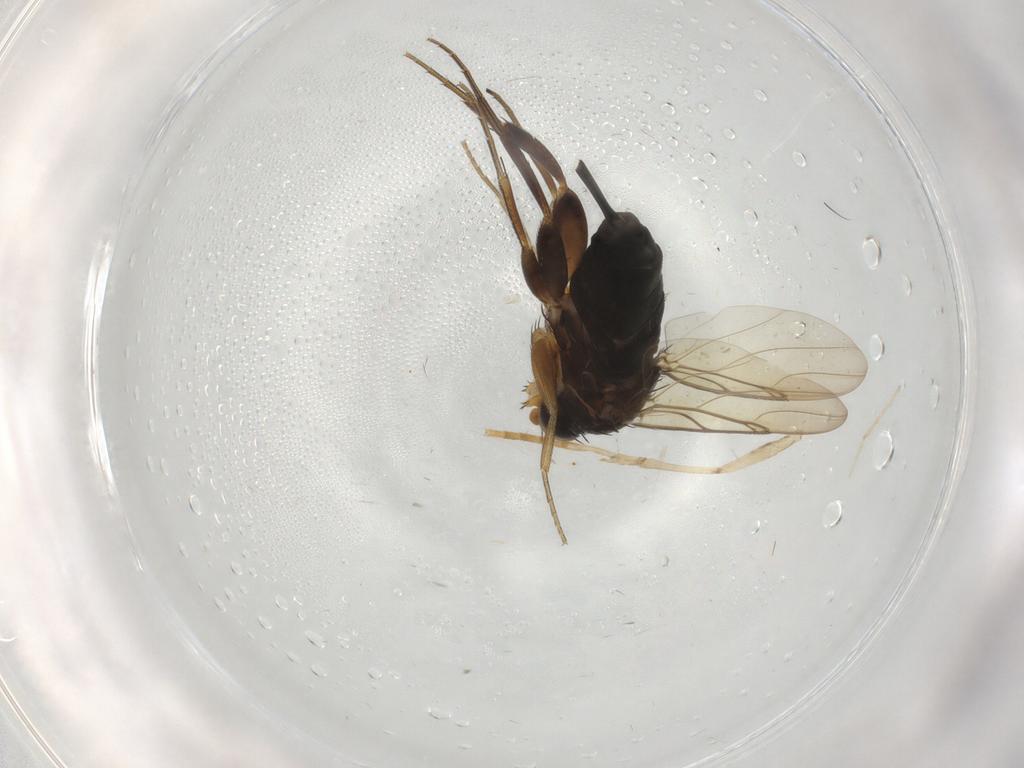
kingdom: Animalia
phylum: Arthropoda
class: Insecta
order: Diptera
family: Phoridae
